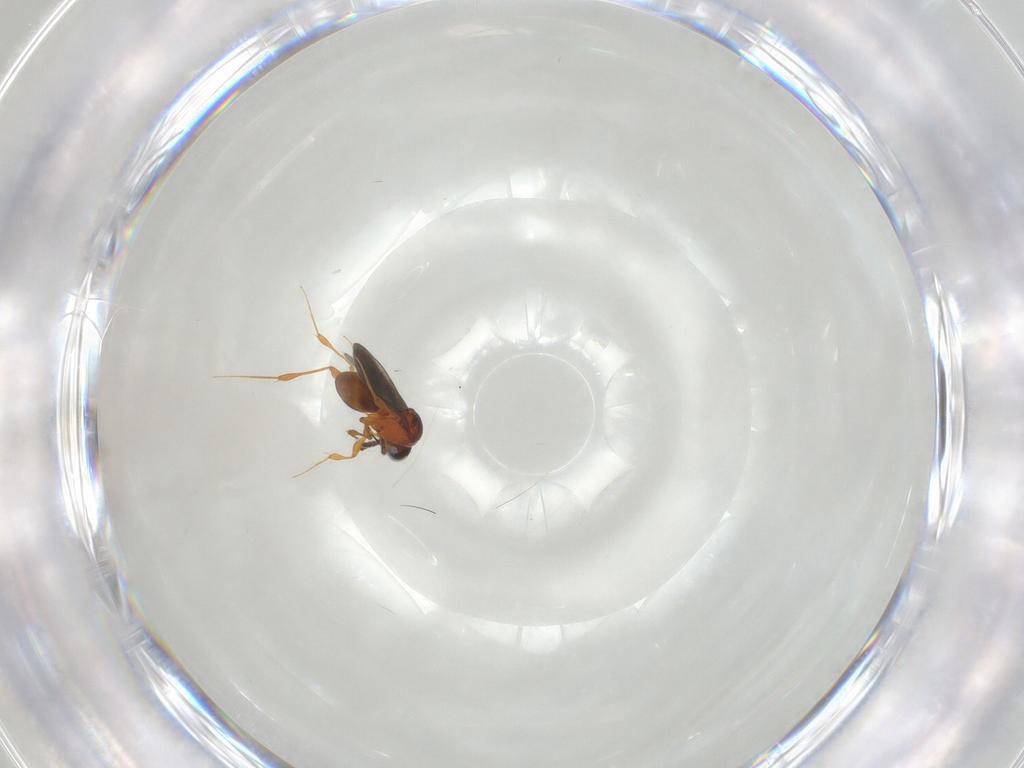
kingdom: Animalia
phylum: Arthropoda
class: Insecta
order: Hymenoptera
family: Platygastridae
